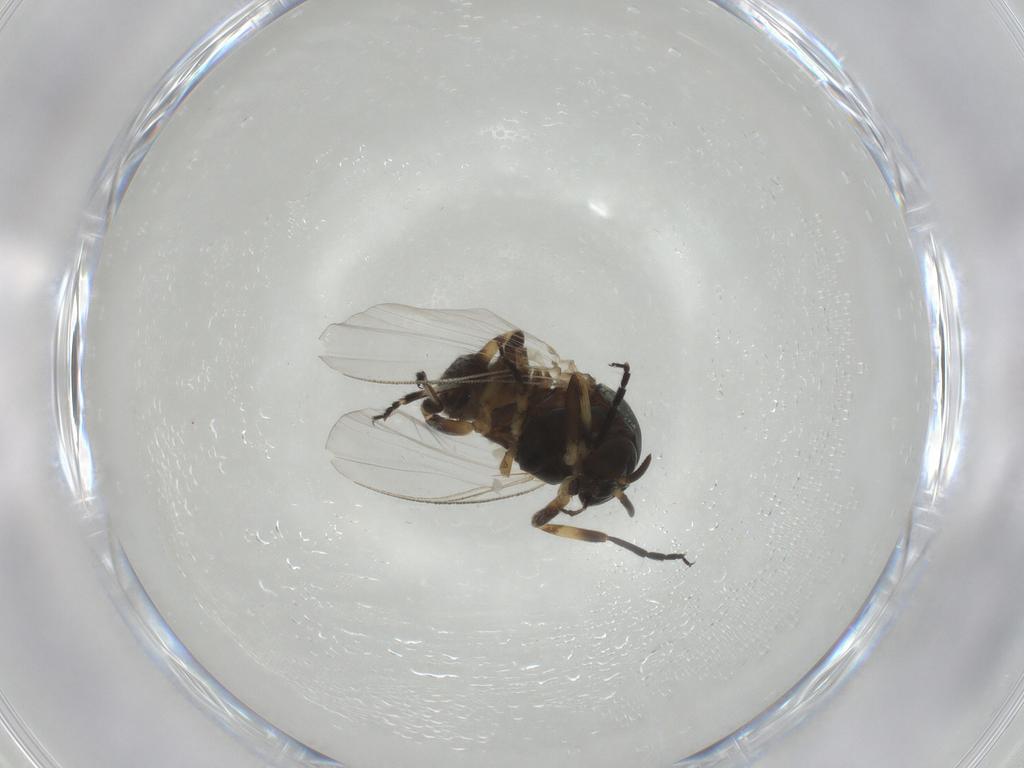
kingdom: Animalia
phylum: Arthropoda
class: Insecta
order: Diptera
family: Chironomidae
